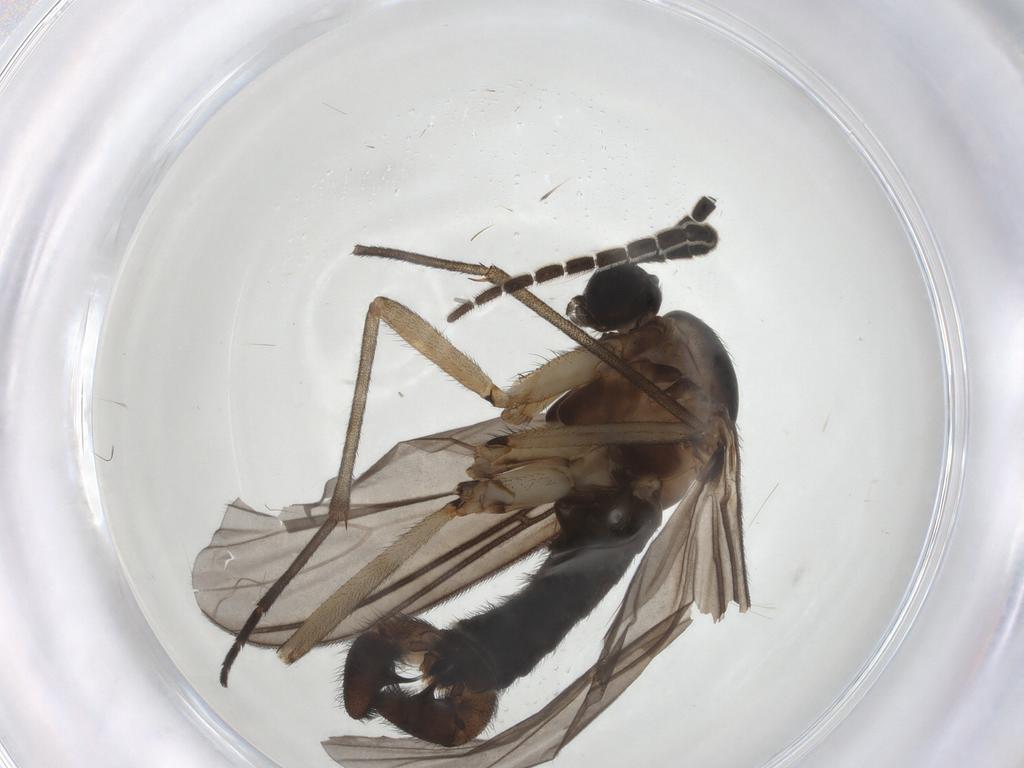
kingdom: Animalia
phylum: Arthropoda
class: Insecta
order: Diptera
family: Sciaridae
